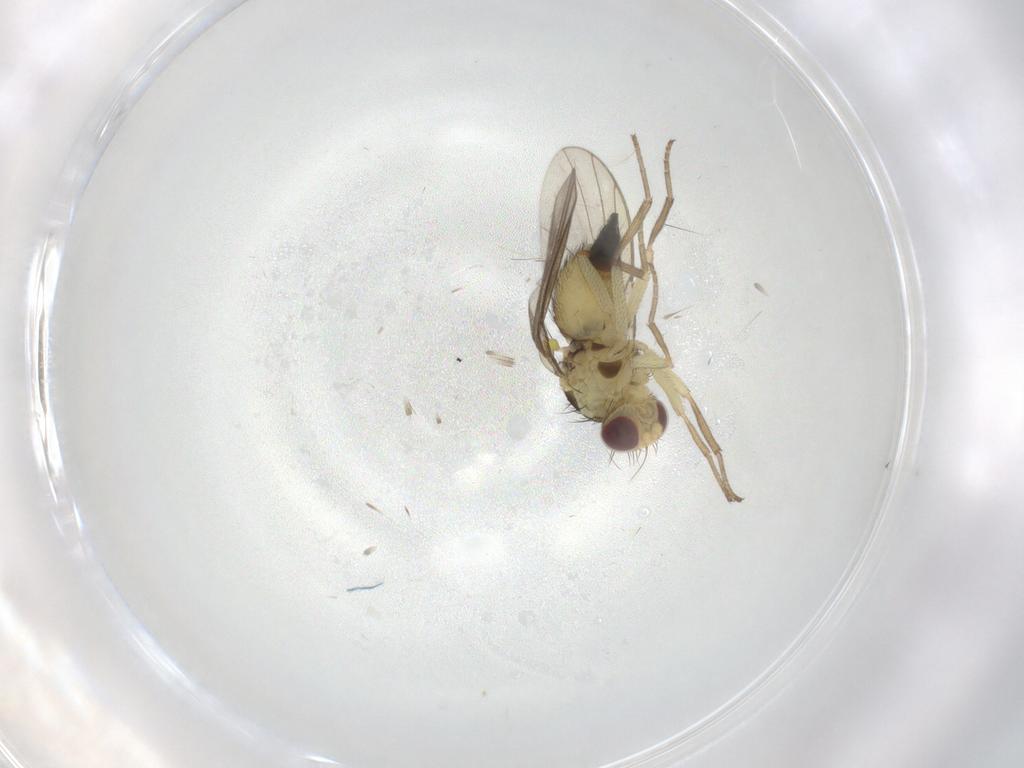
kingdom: Animalia
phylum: Arthropoda
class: Insecta
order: Diptera
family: Agromyzidae
